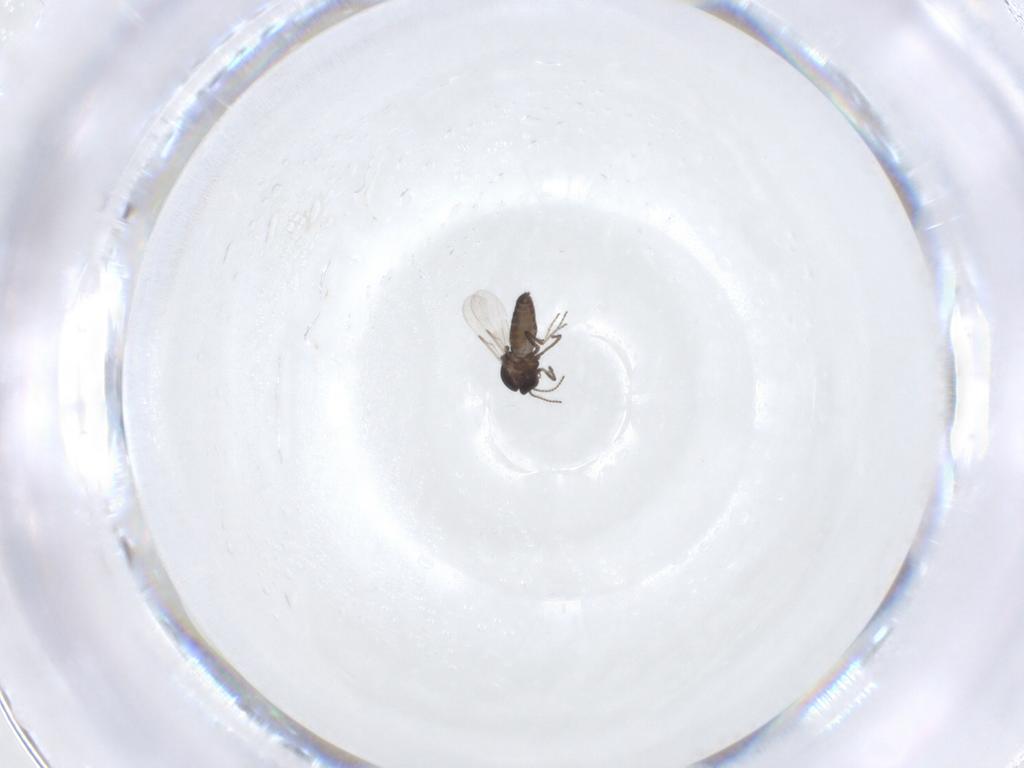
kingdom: Animalia
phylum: Arthropoda
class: Insecta
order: Diptera
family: Ceratopogonidae
